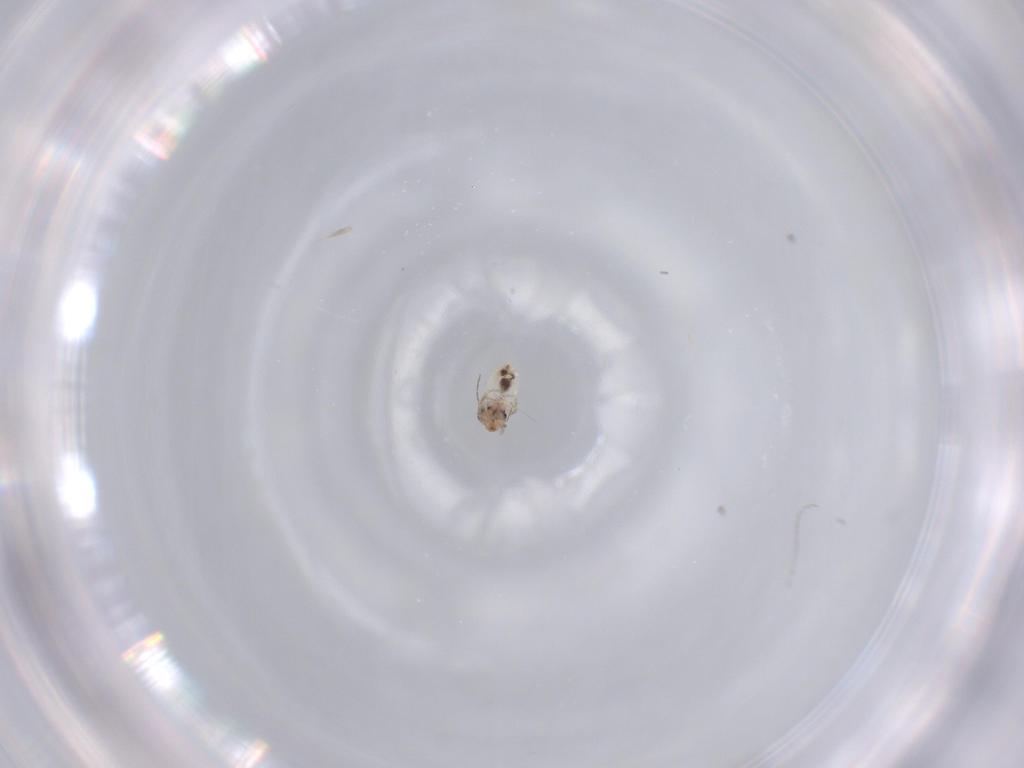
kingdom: Animalia
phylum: Arthropoda
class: Insecta
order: Psocodea
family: Lepidopsocidae
